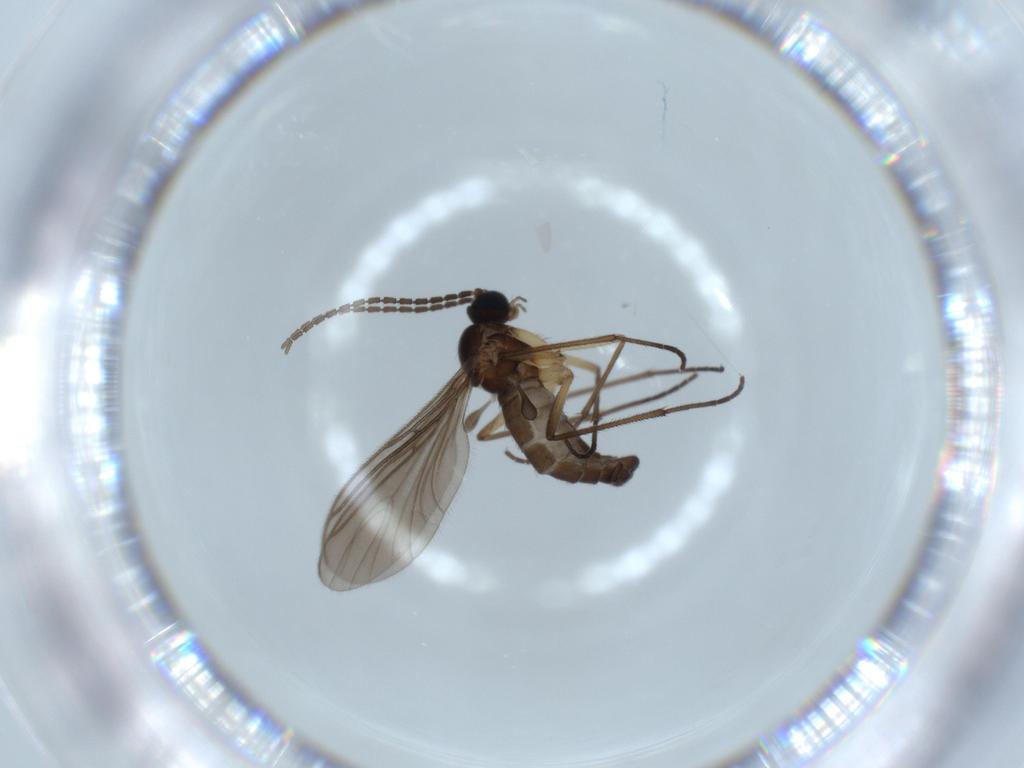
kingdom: Animalia
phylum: Arthropoda
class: Insecta
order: Diptera
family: Sciaridae
